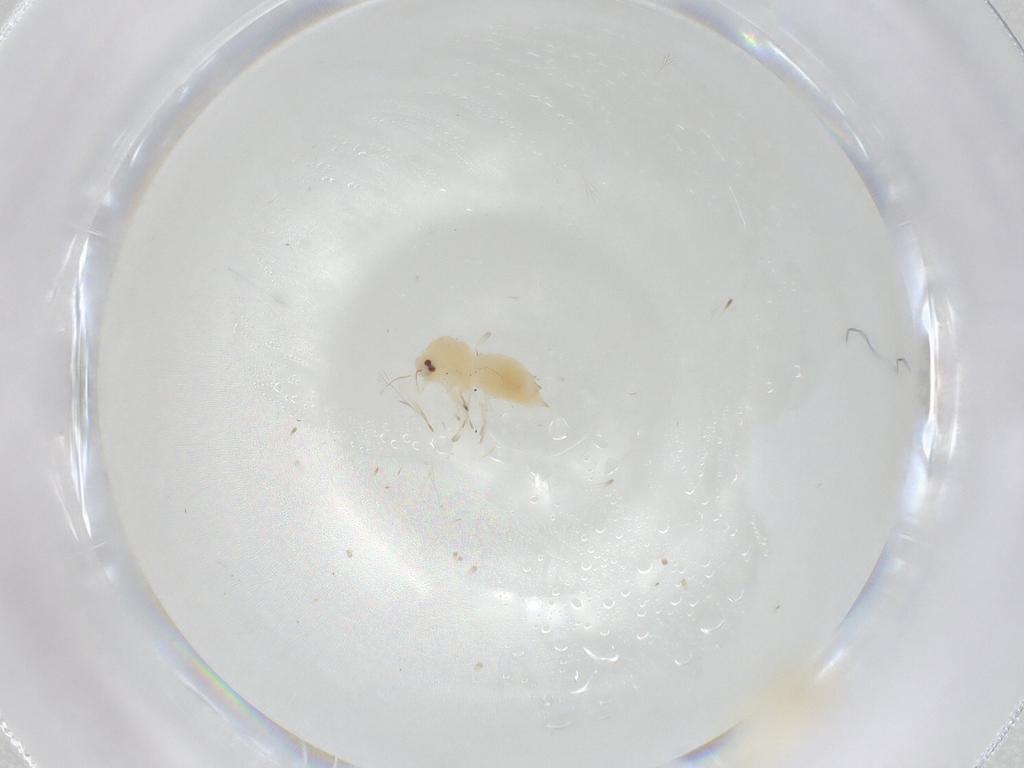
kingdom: Animalia
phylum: Arthropoda
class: Insecta
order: Hemiptera
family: Aleyrodidae
